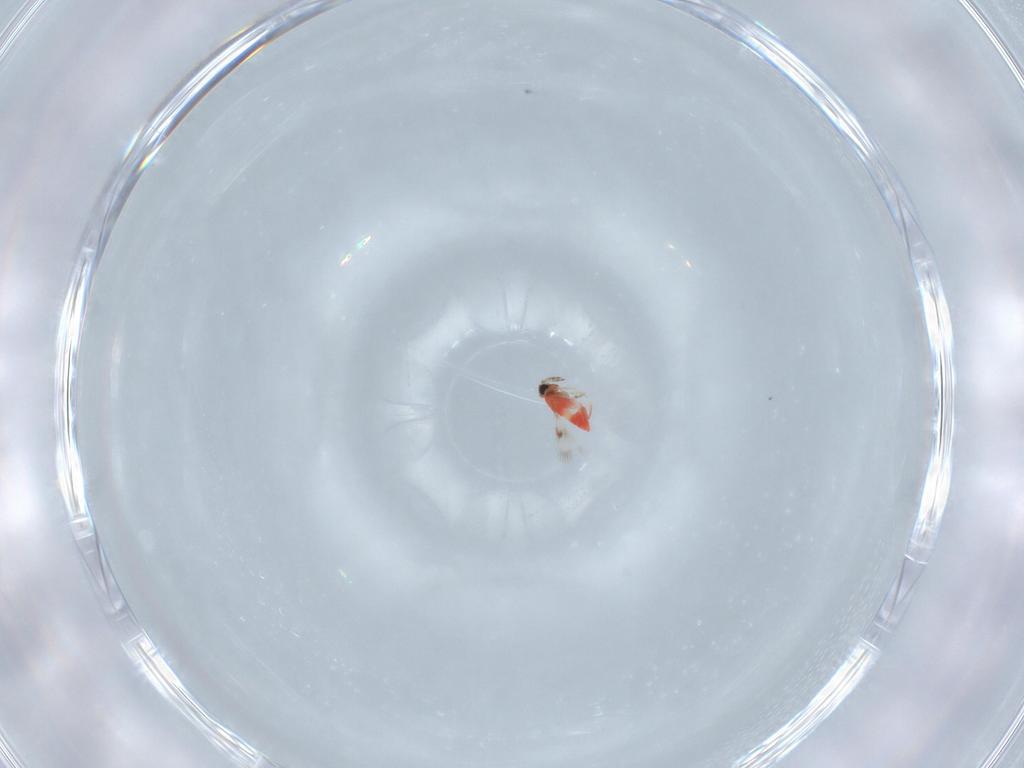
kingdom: Animalia
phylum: Arthropoda
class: Insecta
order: Hymenoptera
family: Trichogrammatidae
